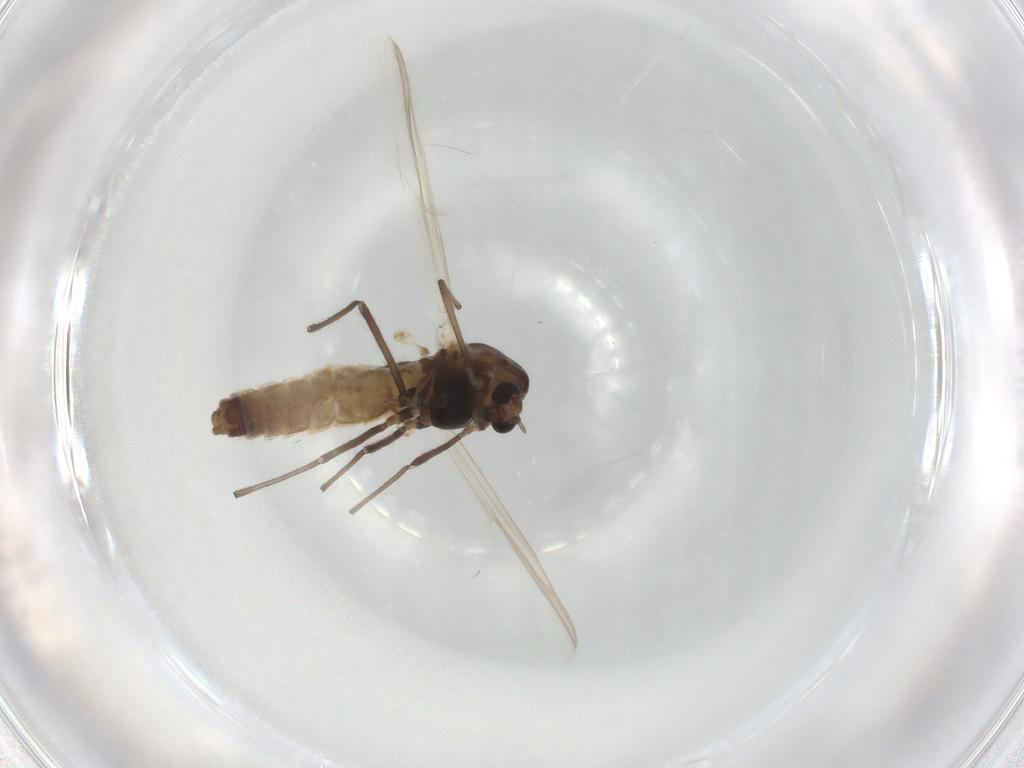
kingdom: Animalia
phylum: Arthropoda
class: Insecta
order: Diptera
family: Chironomidae
